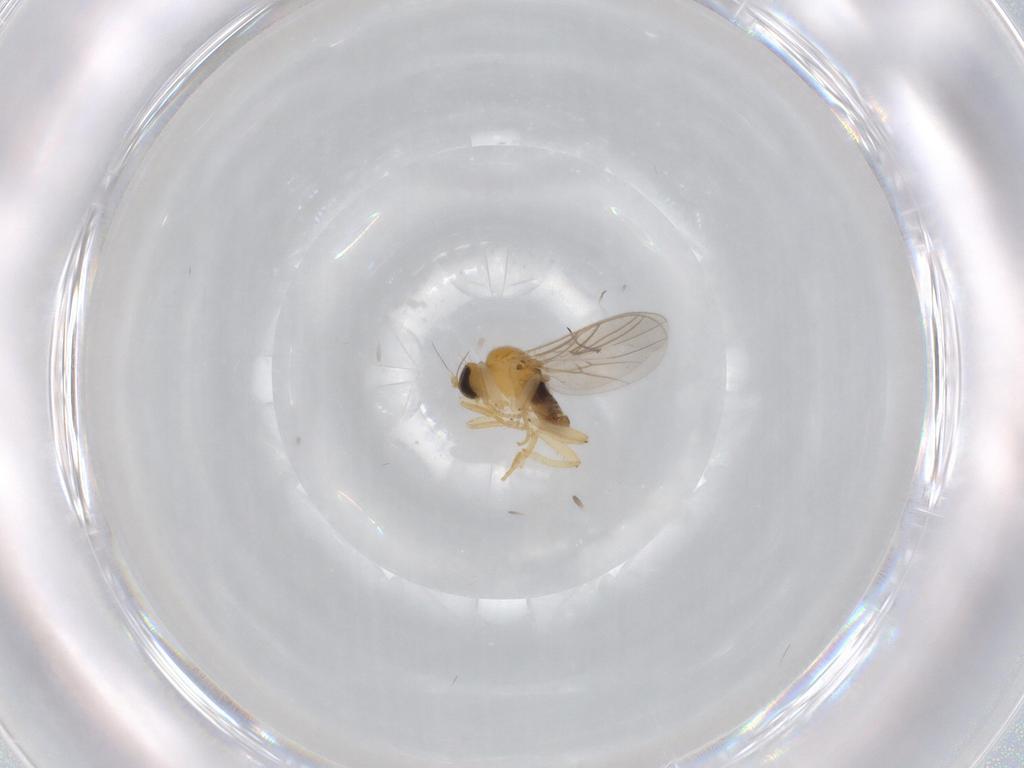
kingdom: Animalia
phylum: Arthropoda
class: Insecta
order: Diptera
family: Hybotidae
